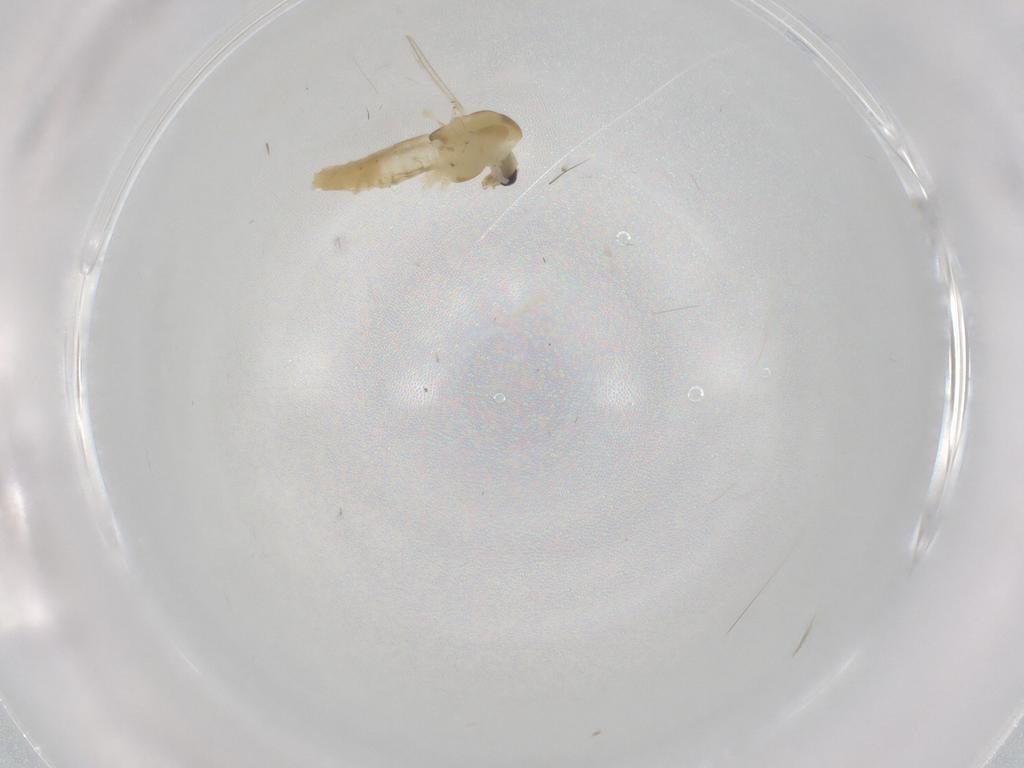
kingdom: Animalia
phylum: Arthropoda
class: Insecta
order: Diptera
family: Chironomidae
